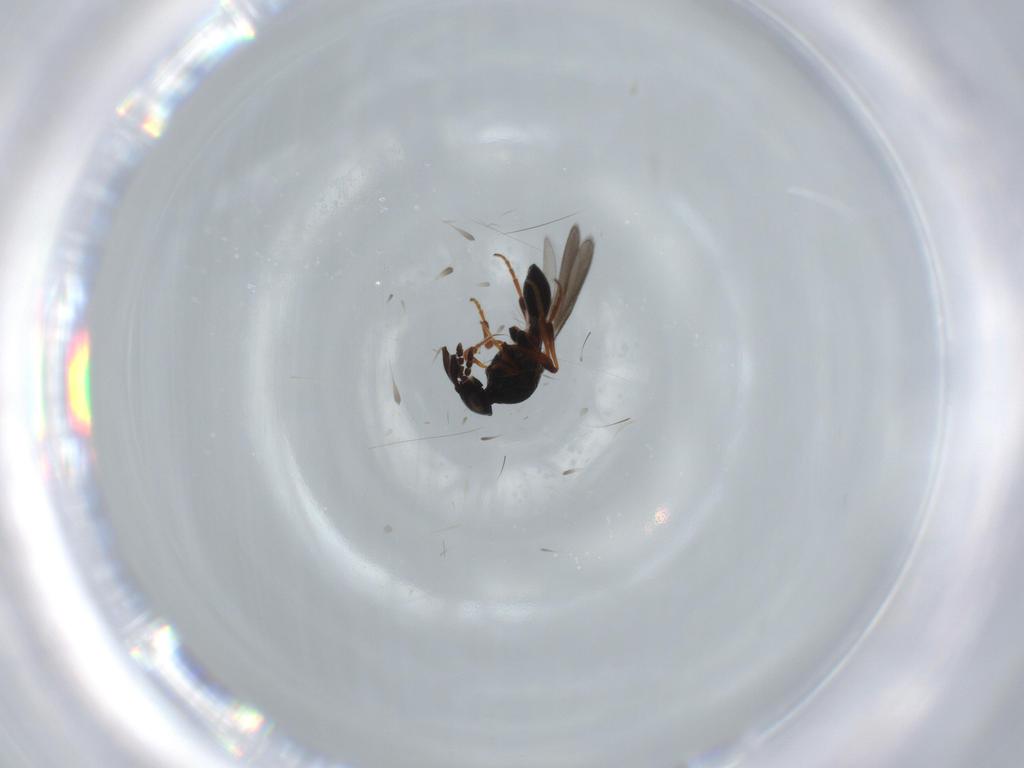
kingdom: Animalia
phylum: Arthropoda
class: Insecta
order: Hymenoptera
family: Platygastridae
